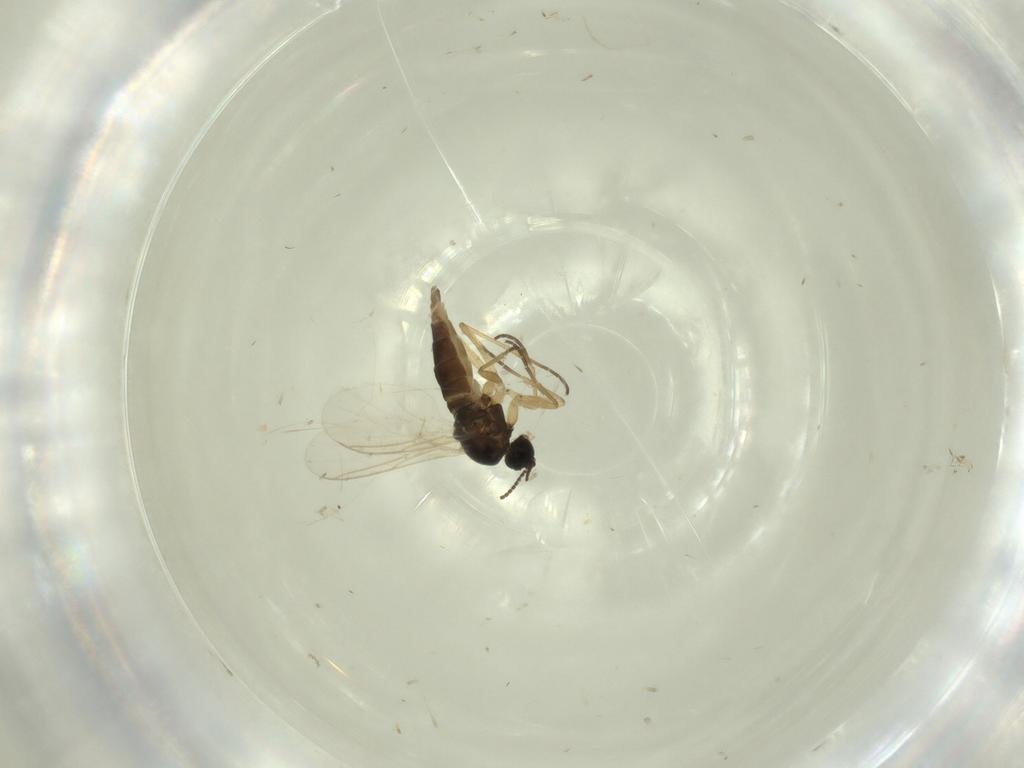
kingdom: Animalia
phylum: Arthropoda
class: Insecta
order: Diptera
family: Sciaridae
